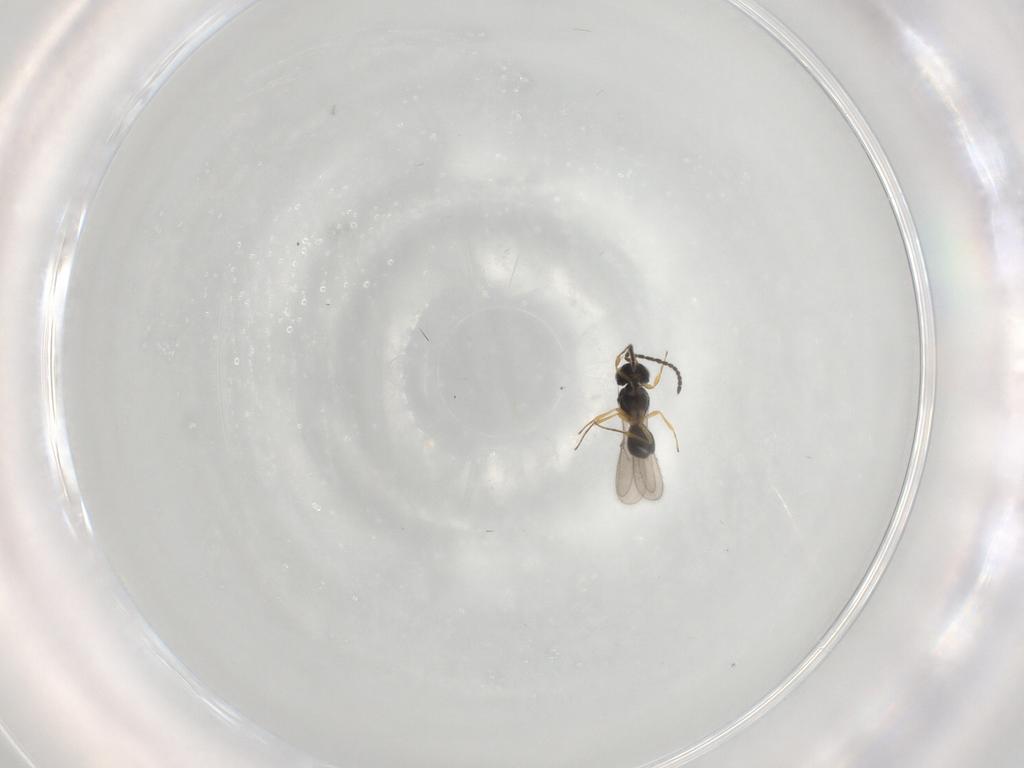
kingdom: Animalia
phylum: Arthropoda
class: Insecta
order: Hymenoptera
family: Scelionidae
